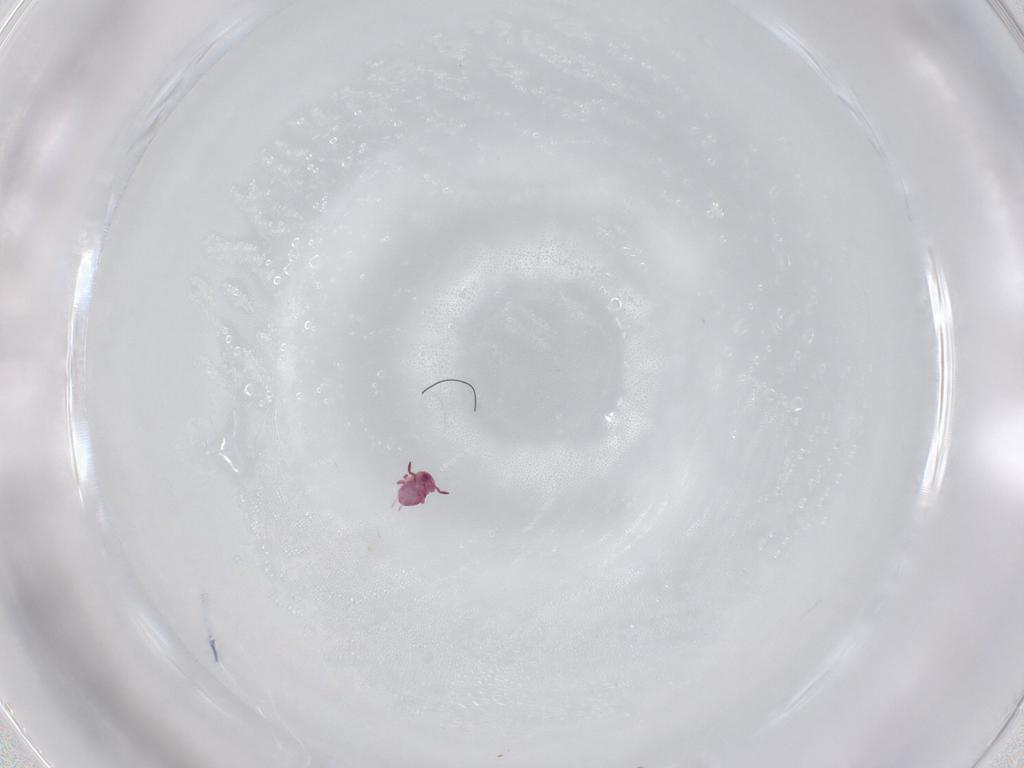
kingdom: Animalia
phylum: Arthropoda
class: Collembola
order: Symphypleona
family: Sminthurididae
